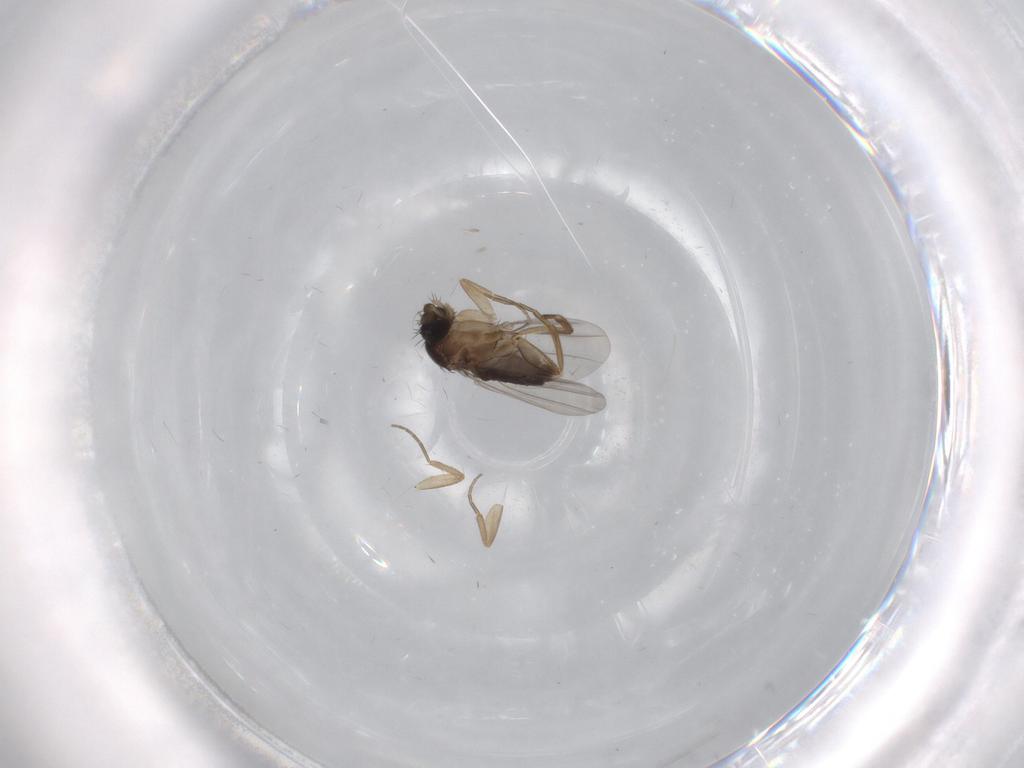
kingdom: Animalia
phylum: Arthropoda
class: Insecta
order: Diptera
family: Phoridae
